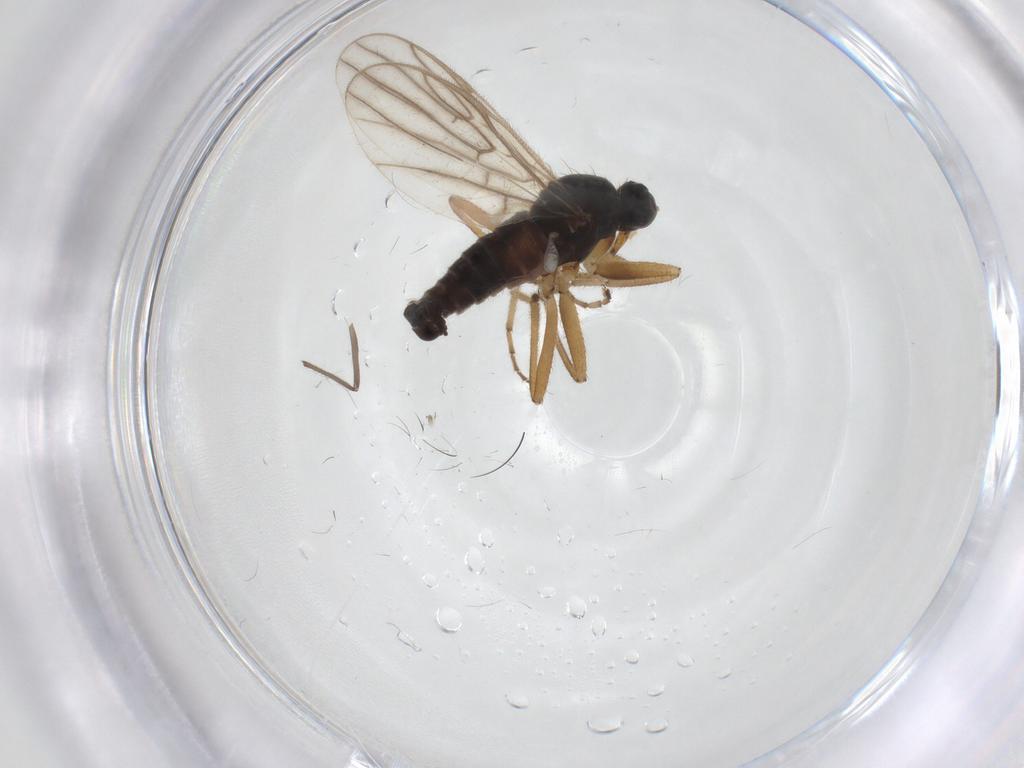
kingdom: Animalia
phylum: Arthropoda
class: Insecta
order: Diptera
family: Hybotidae
